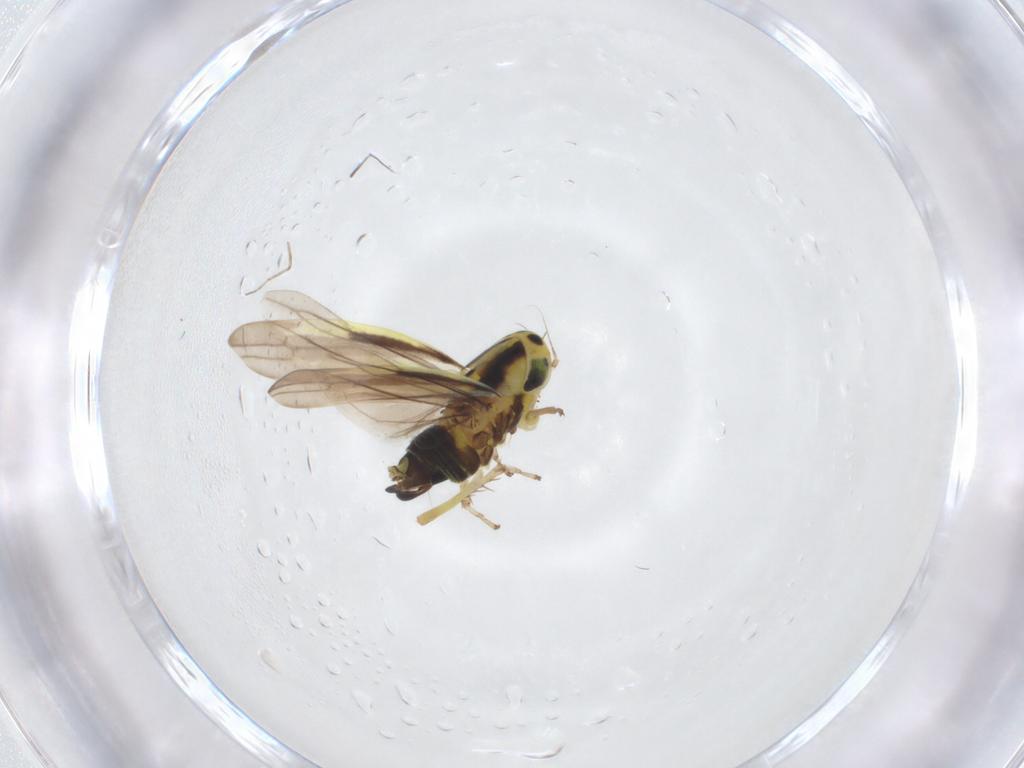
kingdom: Animalia
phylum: Arthropoda
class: Insecta
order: Hemiptera
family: Cicadellidae
